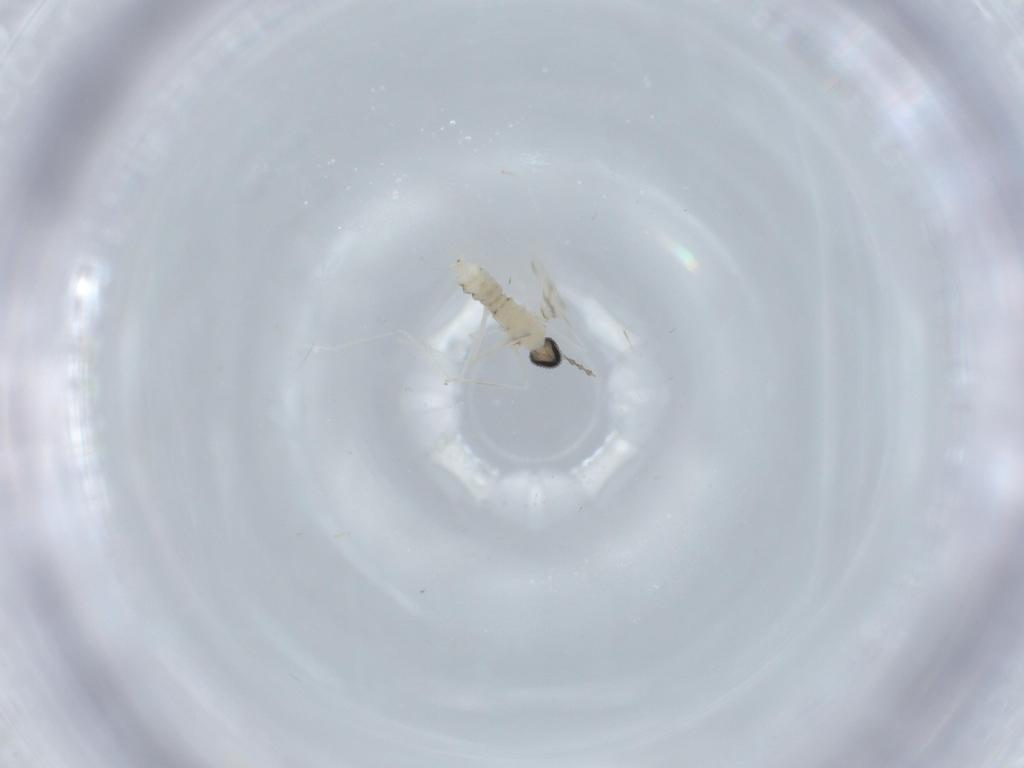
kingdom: Animalia
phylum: Arthropoda
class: Insecta
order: Diptera
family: Cecidomyiidae
